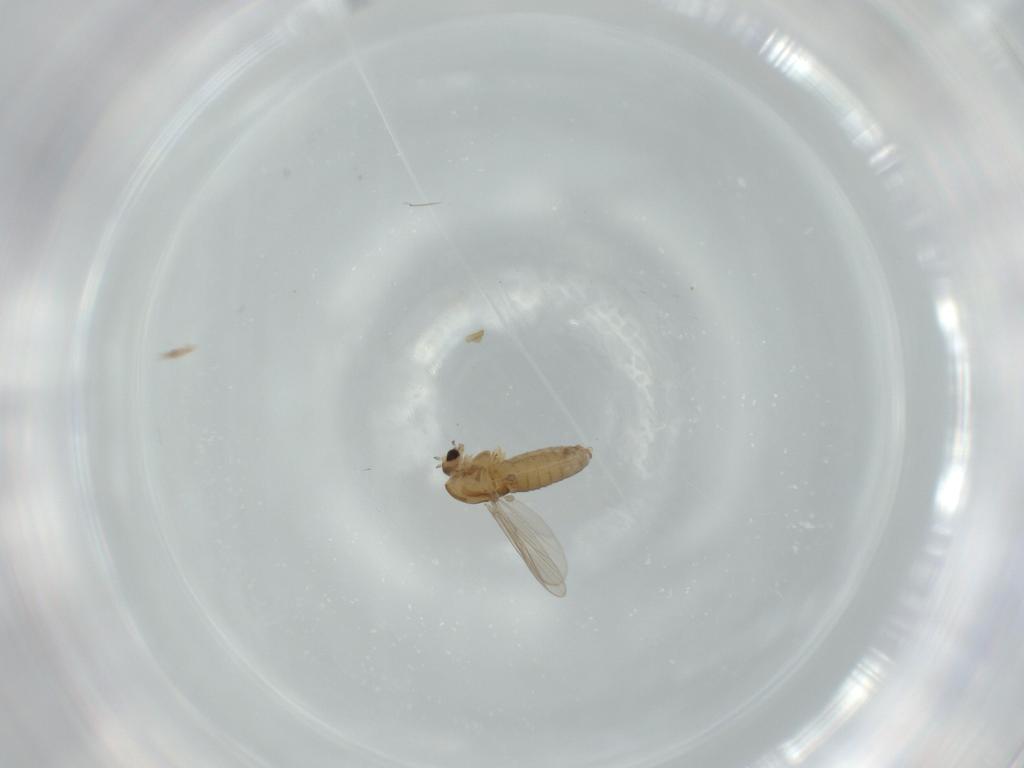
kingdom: Animalia
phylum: Arthropoda
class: Insecta
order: Diptera
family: Chironomidae
